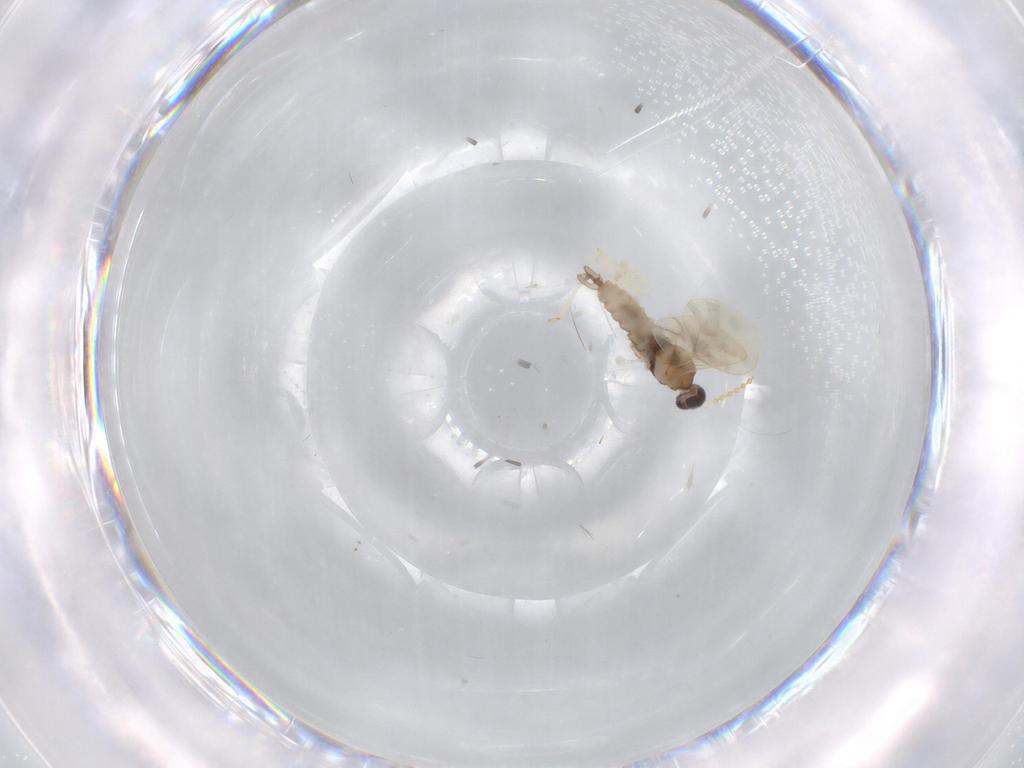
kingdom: Animalia
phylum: Arthropoda
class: Insecta
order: Diptera
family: Cecidomyiidae
